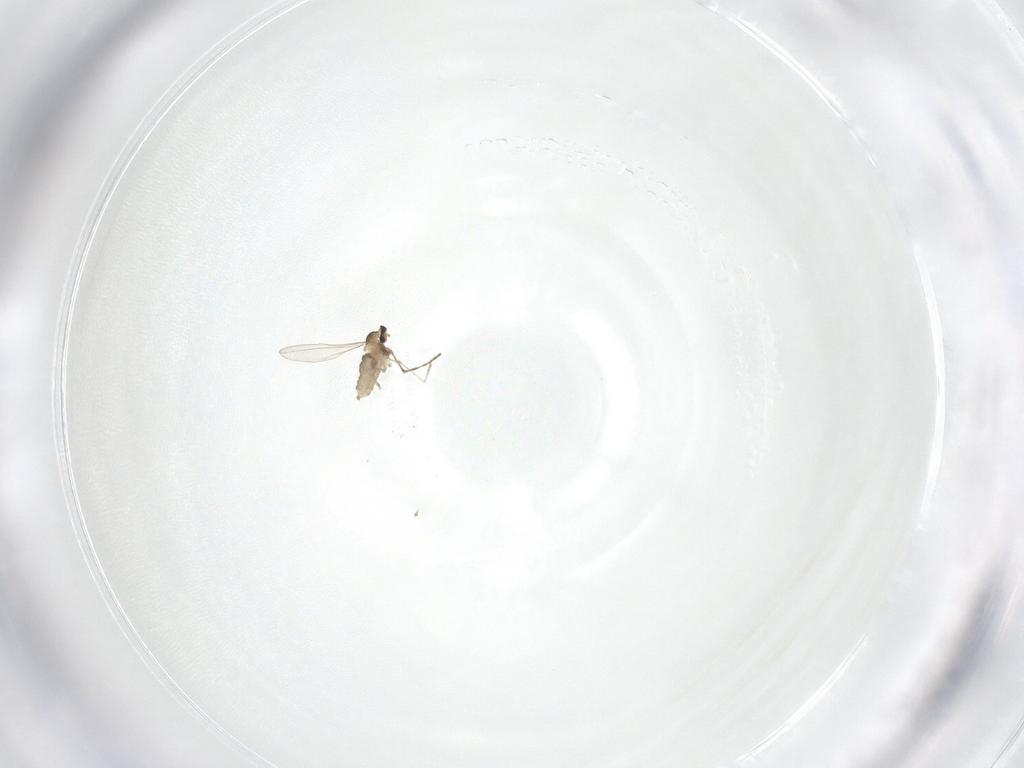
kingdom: Animalia
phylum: Arthropoda
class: Insecta
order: Diptera
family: Cecidomyiidae
